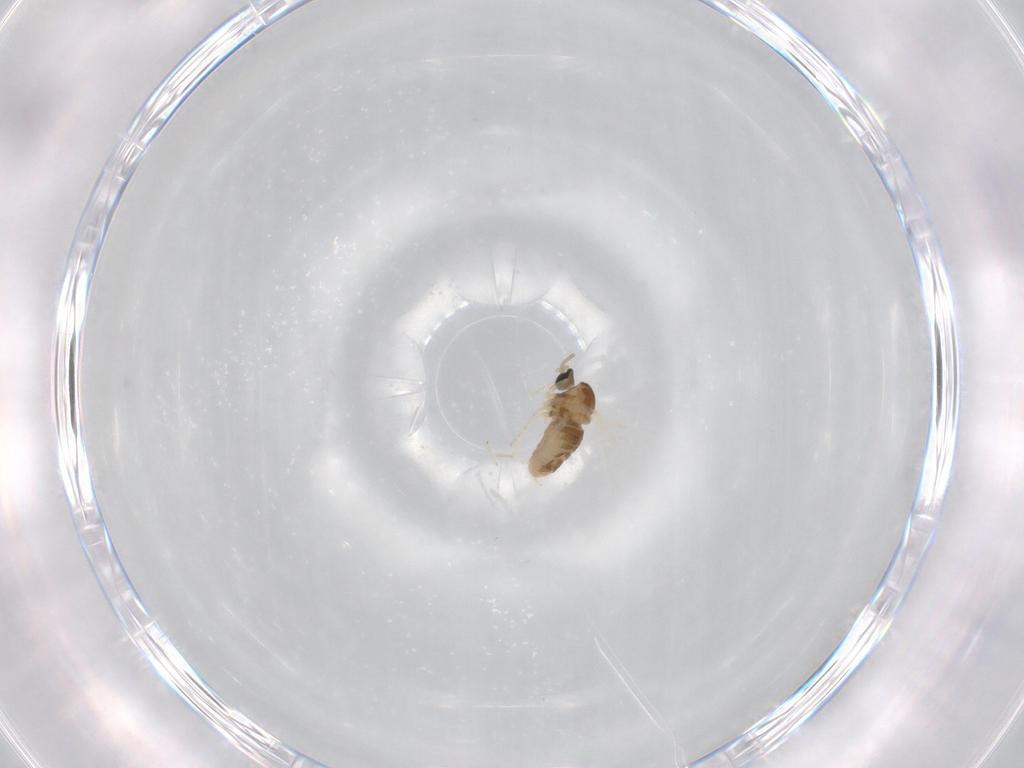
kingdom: Animalia
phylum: Arthropoda
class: Insecta
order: Diptera
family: Cecidomyiidae
